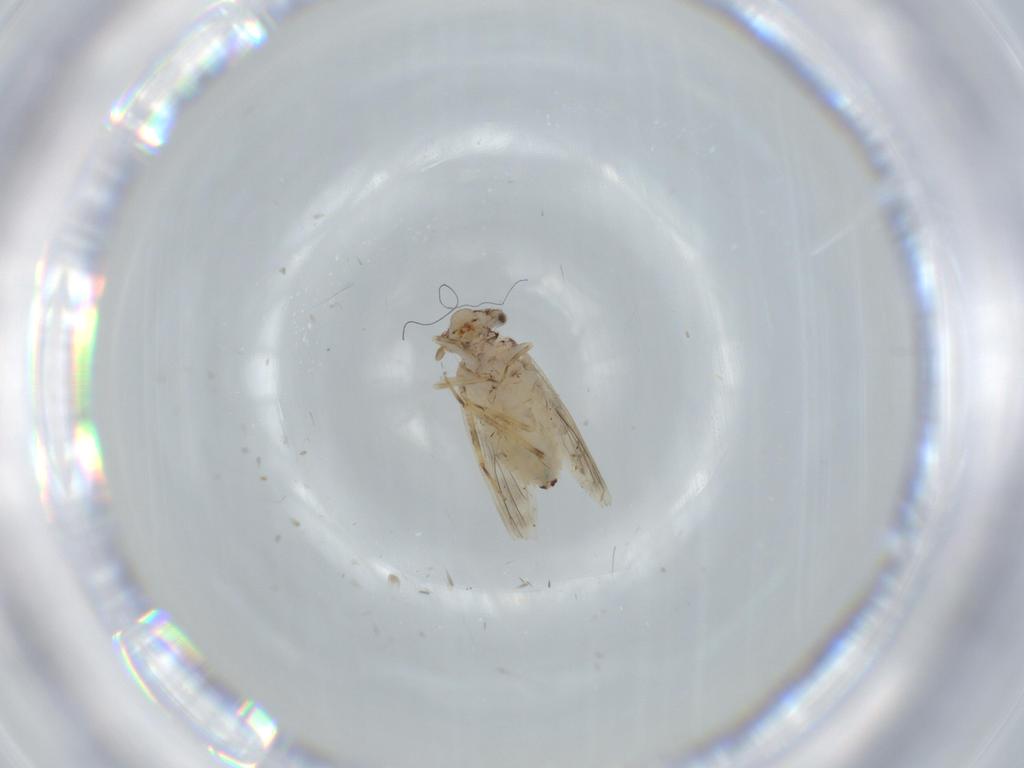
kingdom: Animalia
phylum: Arthropoda
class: Insecta
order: Psocodea
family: Lepidopsocidae
